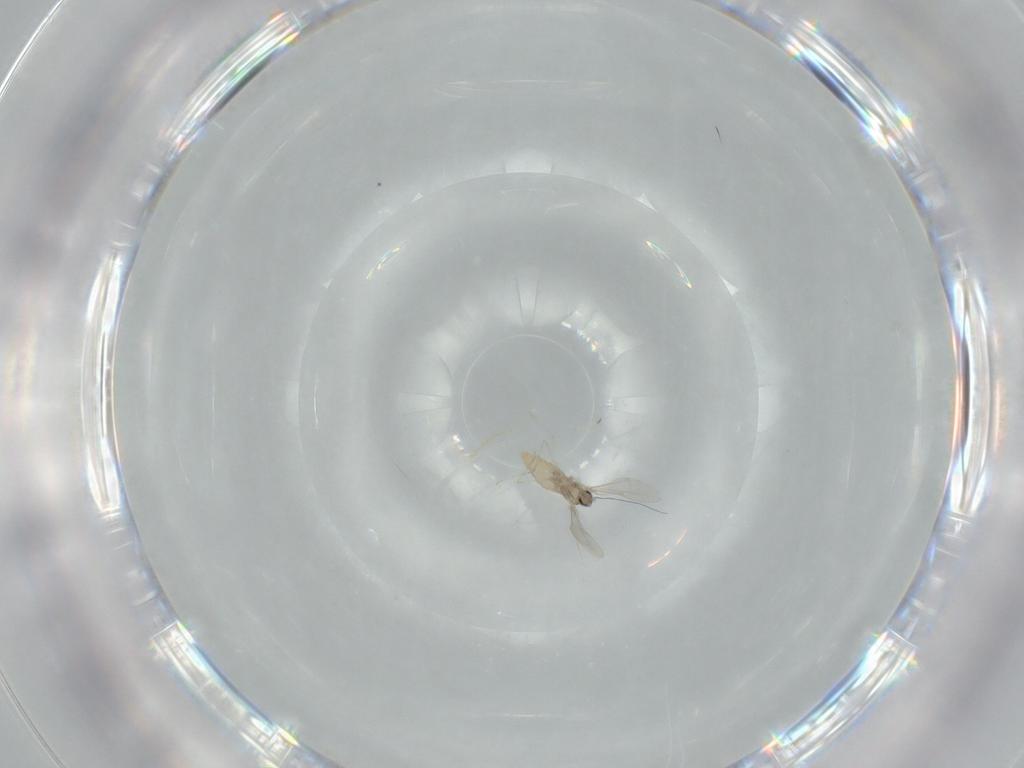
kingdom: Animalia
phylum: Arthropoda
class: Insecta
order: Diptera
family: Cecidomyiidae
